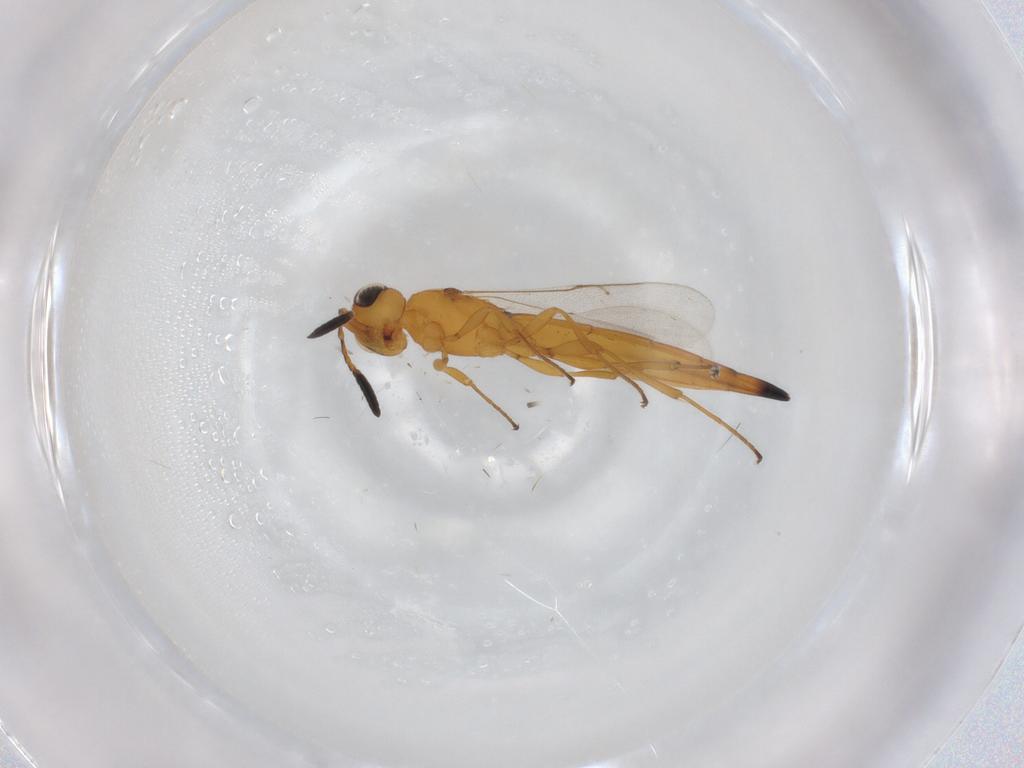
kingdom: Animalia
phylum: Arthropoda
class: Insecta
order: Hymenoptera
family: Scelionidae
